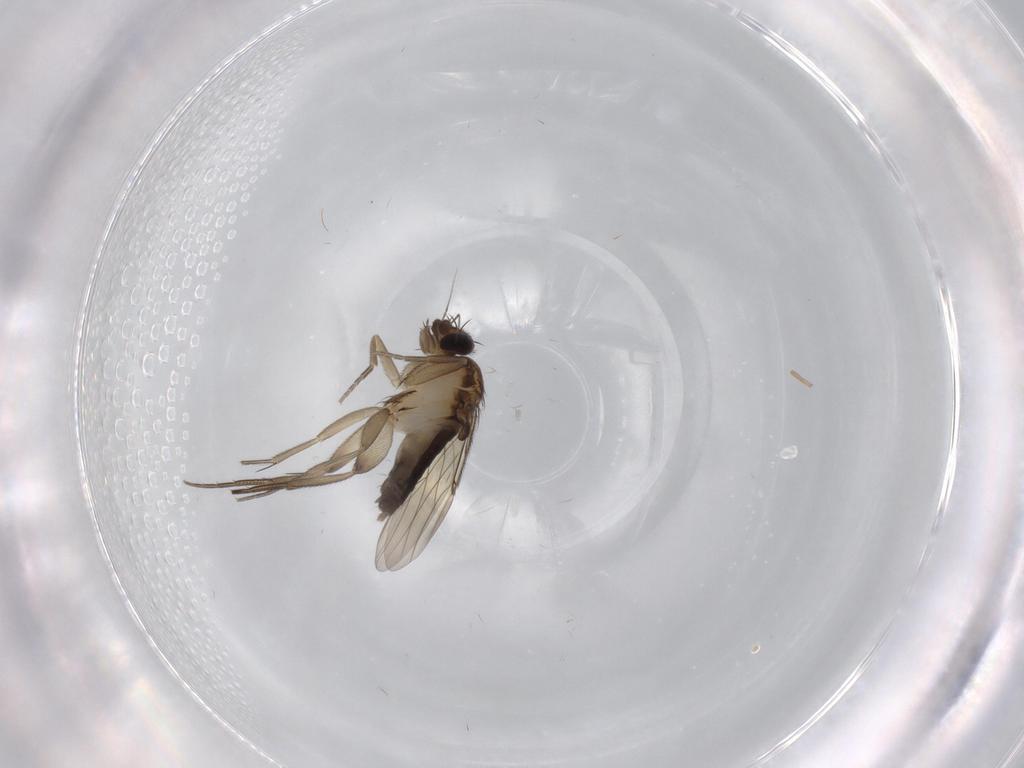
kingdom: Animalia
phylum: Arthropoda
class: Insecta
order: Diptera
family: Phoridae
